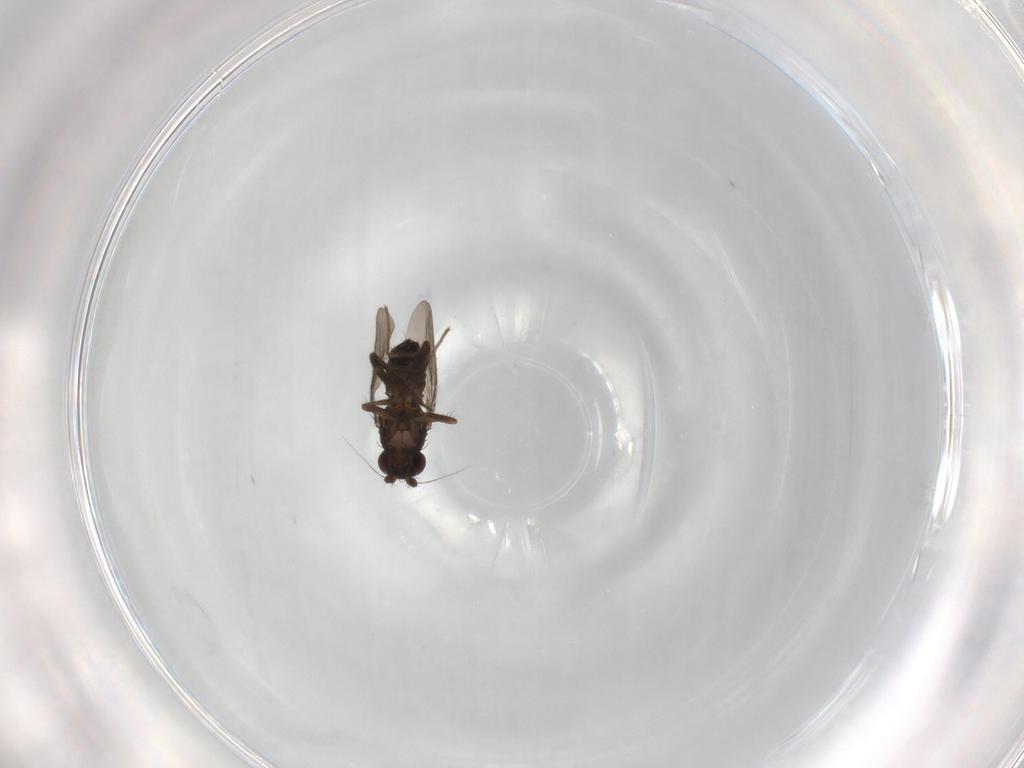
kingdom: Animalia
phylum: Arthropoda
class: Insecta
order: Diptera
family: Sphaeroceridae
